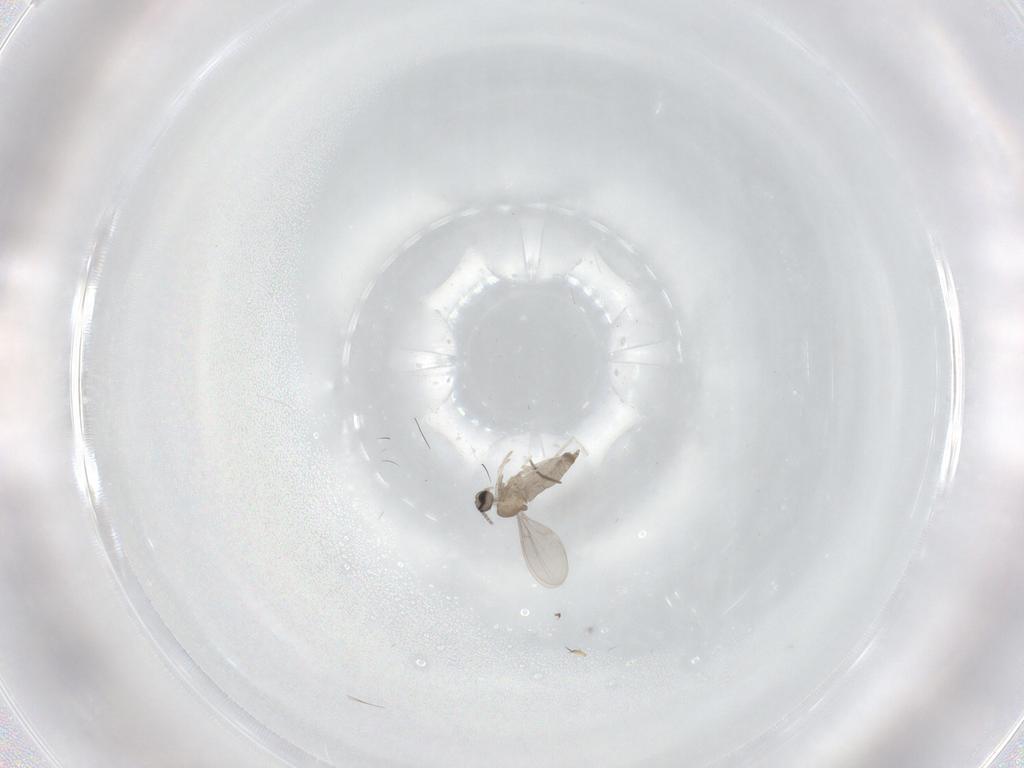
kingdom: Animalia
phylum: Arthropoda
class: Insecta
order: Diptera
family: Cecidomyiidae
